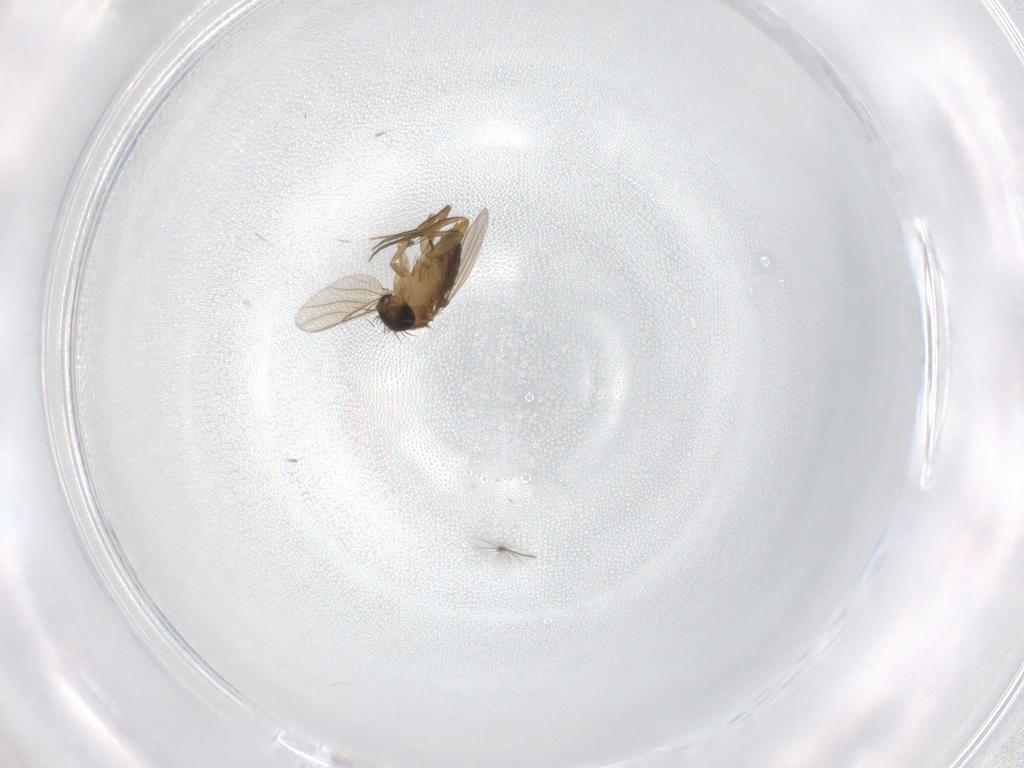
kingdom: Animalia
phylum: Arthropoda
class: Insecta
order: Diptera
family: Phoridae
